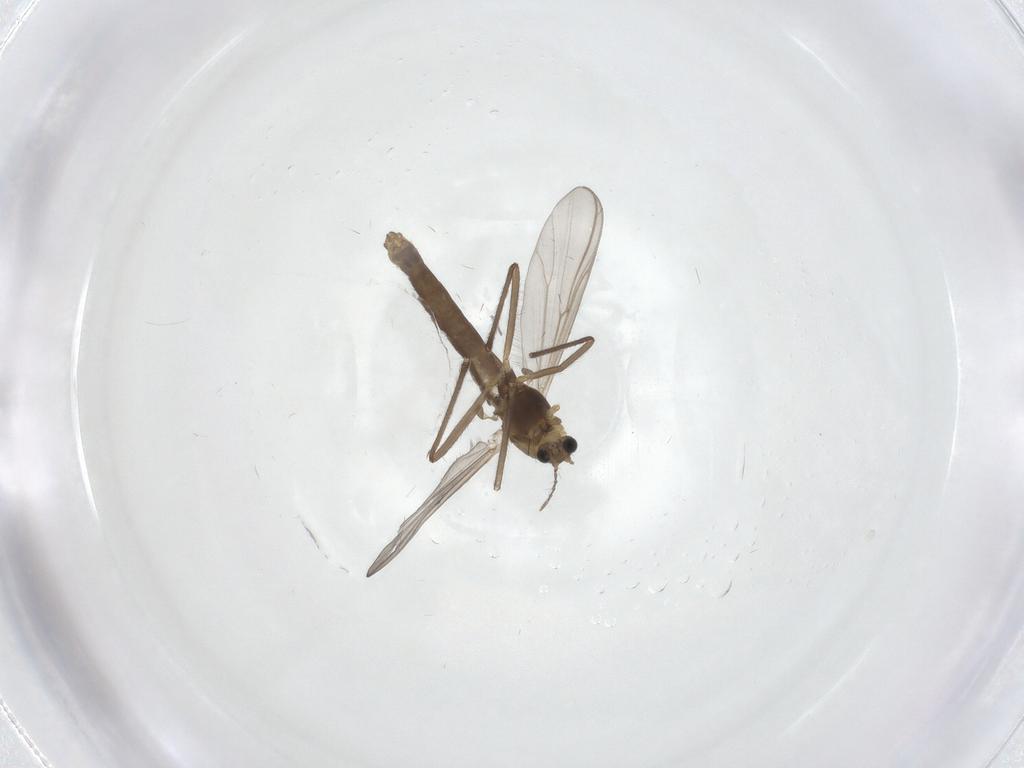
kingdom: Animalia
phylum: Arthropoda
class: Insecta
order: Diptera
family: Chironomidae
